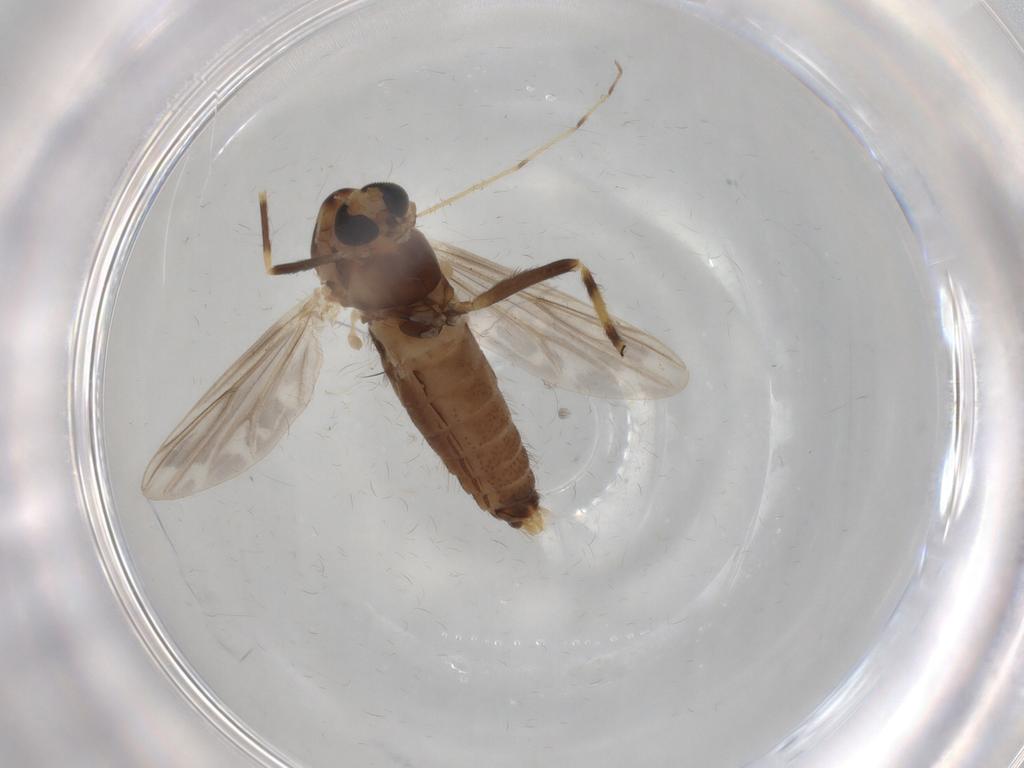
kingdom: Animalia
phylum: Arthropoda
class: Insecta
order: Diptera
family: Chironomidae
